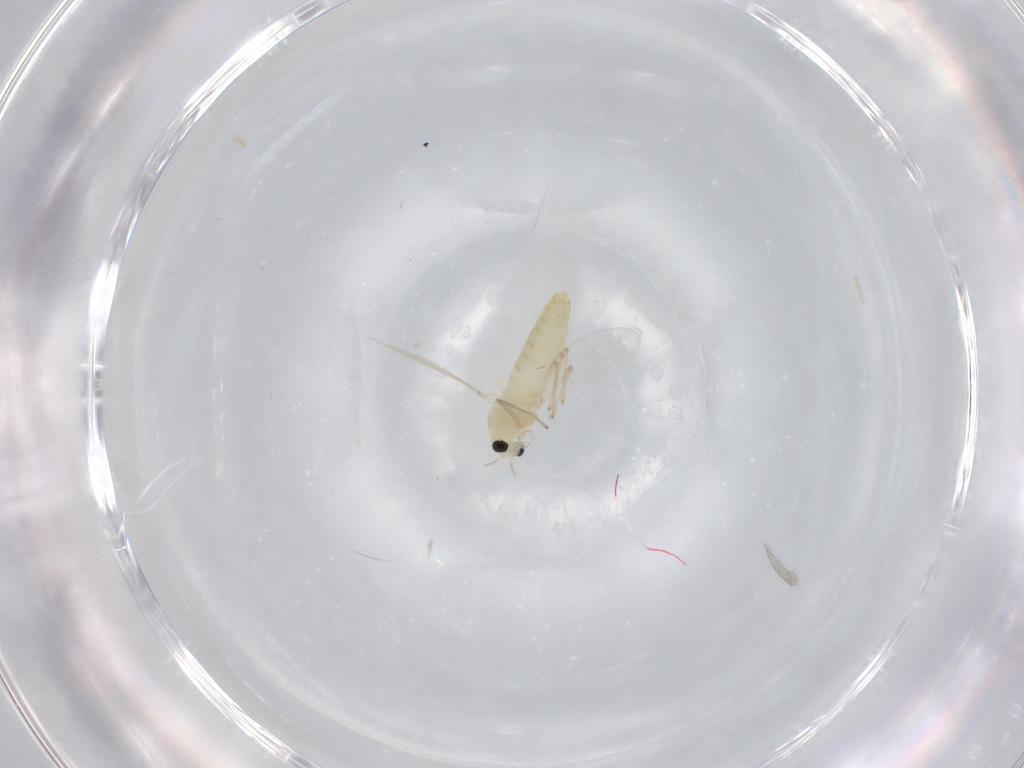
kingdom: Animalia
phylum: Arthropoda
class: Insecta
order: Diptera
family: Chironomidae
